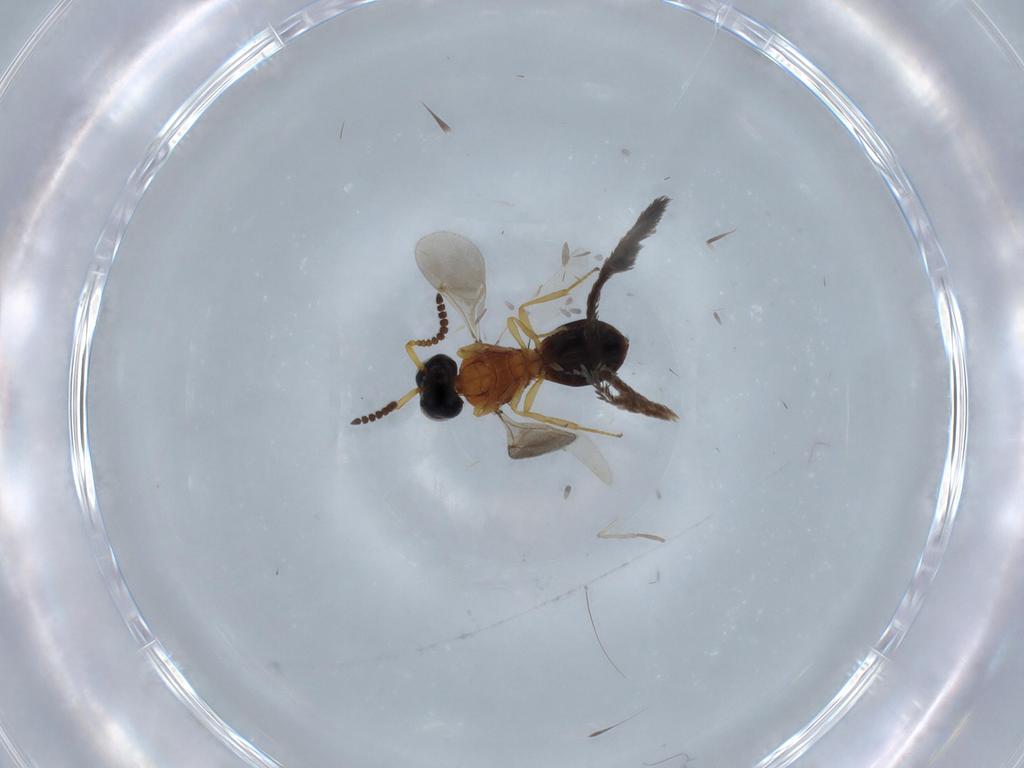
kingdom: Animalia
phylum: Arthropoda
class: Insecta
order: Hymenoptera
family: Scelionidae
